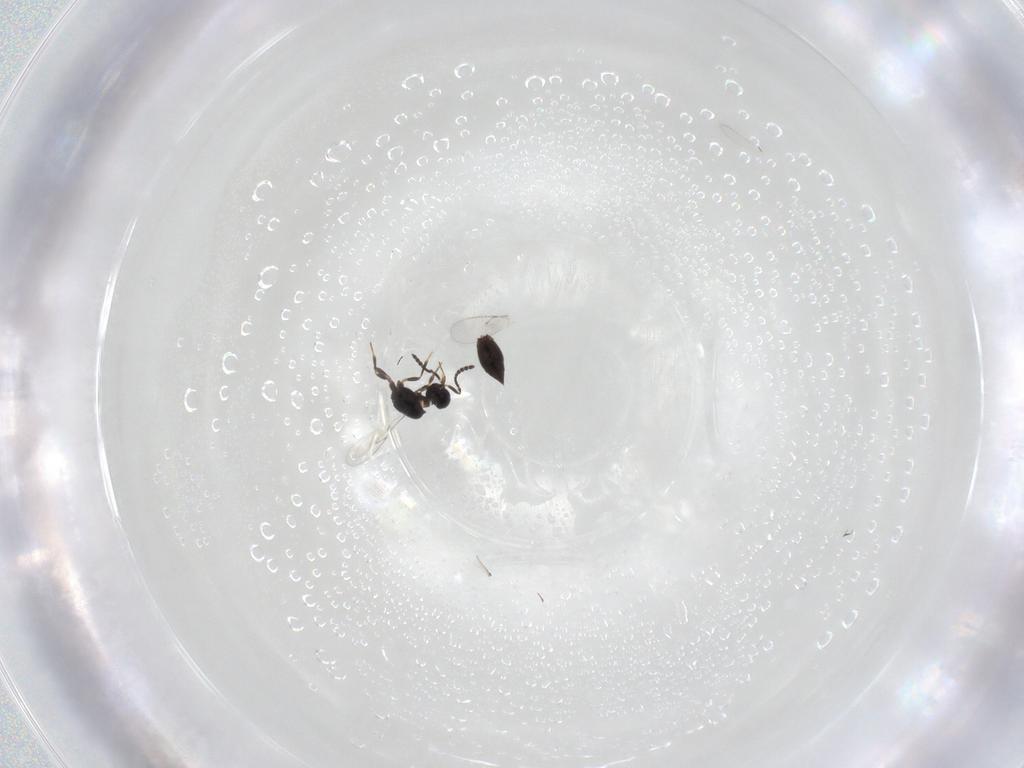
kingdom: Animalia
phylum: Arthropoda
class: Insecta
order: Hymenoptera
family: Scelionidae
